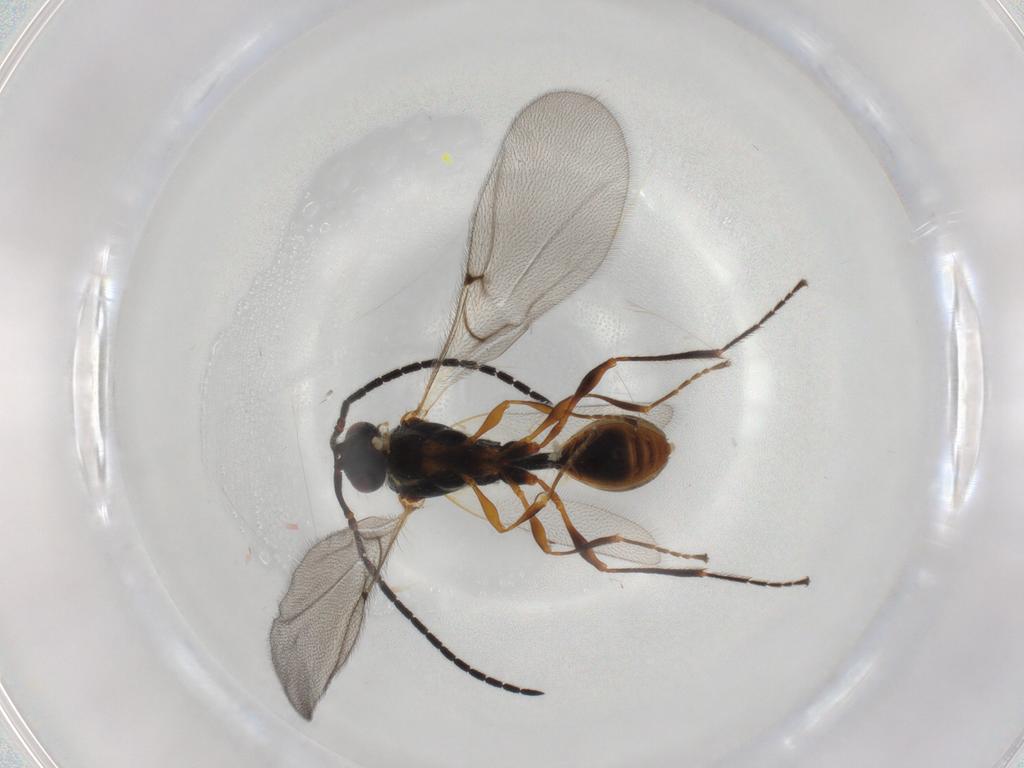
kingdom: Animalia
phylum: Arthropoda
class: Insecta
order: Hymenoptera
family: Diapriidae
